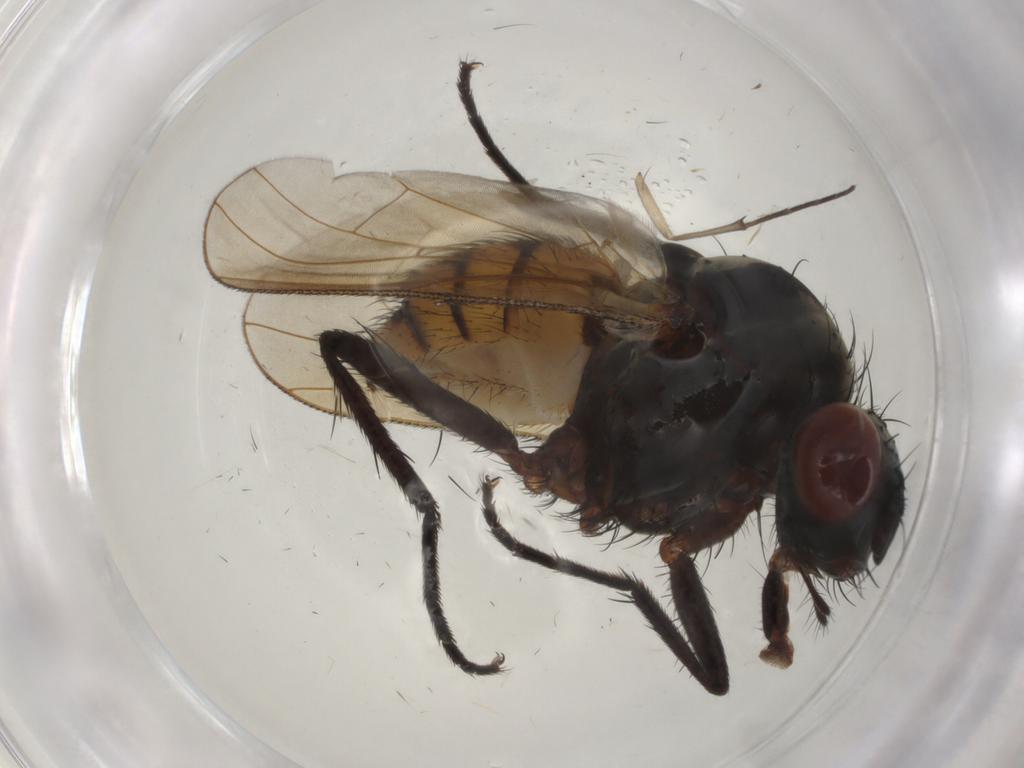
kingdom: Animalia
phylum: Arthropoda
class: Insecta
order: Diptera
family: Anthomyiidae
